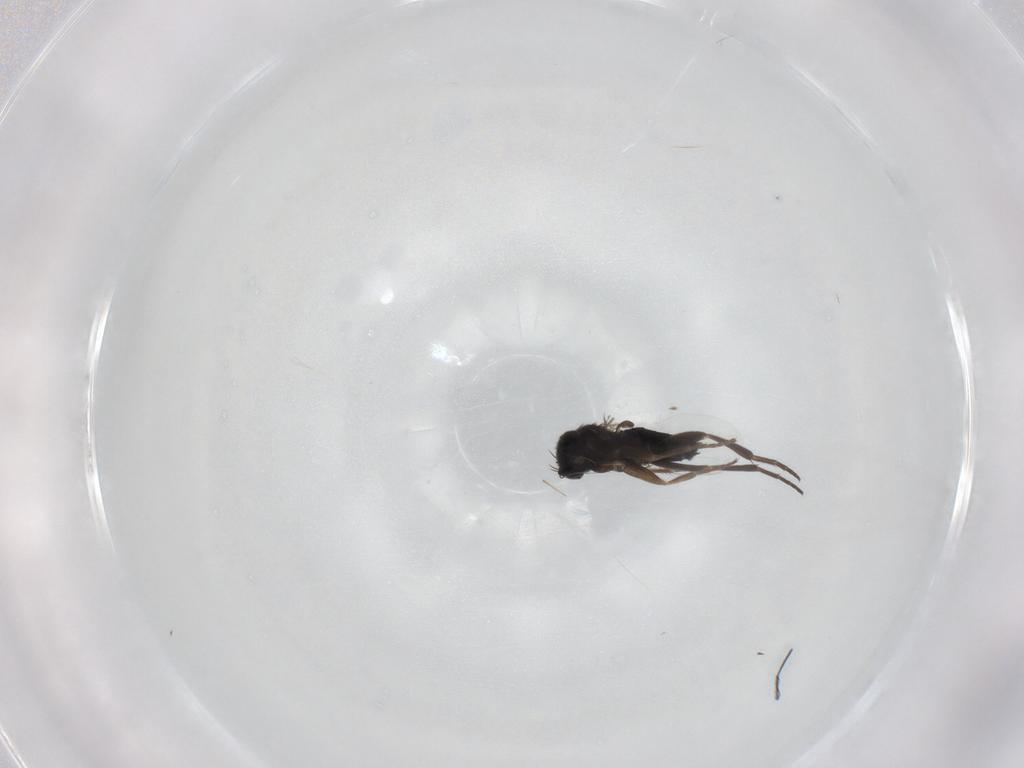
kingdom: Animalia
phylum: Arthropoda
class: Insecta
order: Diptera
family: Phoridae
